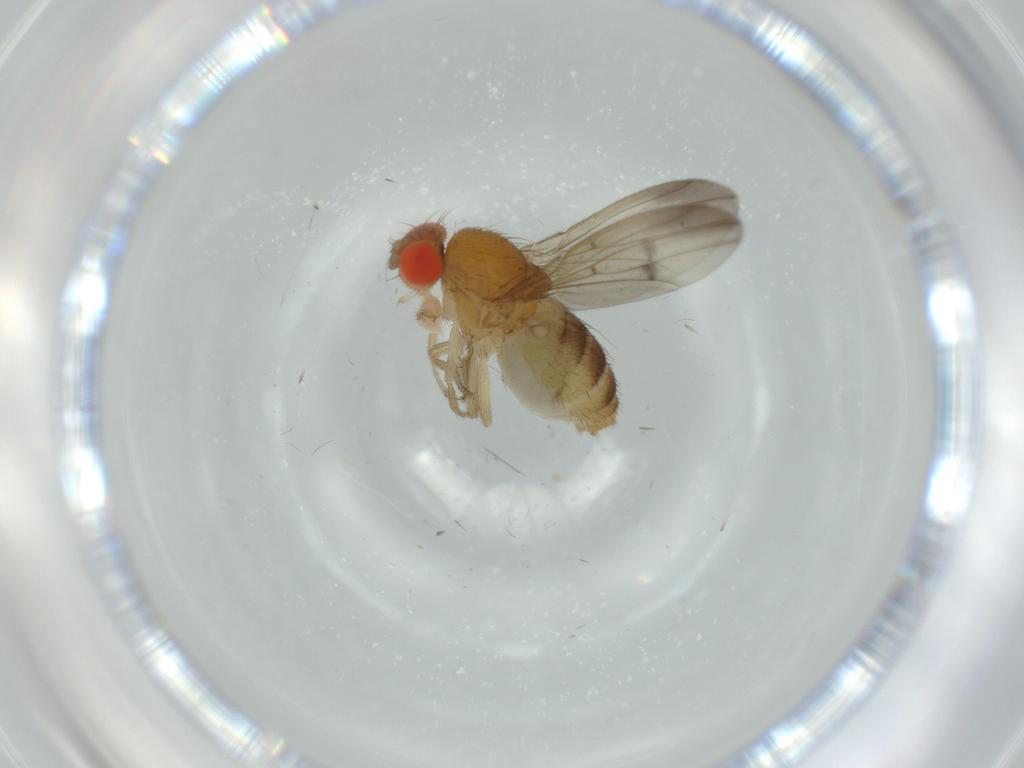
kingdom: Animalia
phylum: Arthropoda
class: Insecta
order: Diptera
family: Drosophilidae
